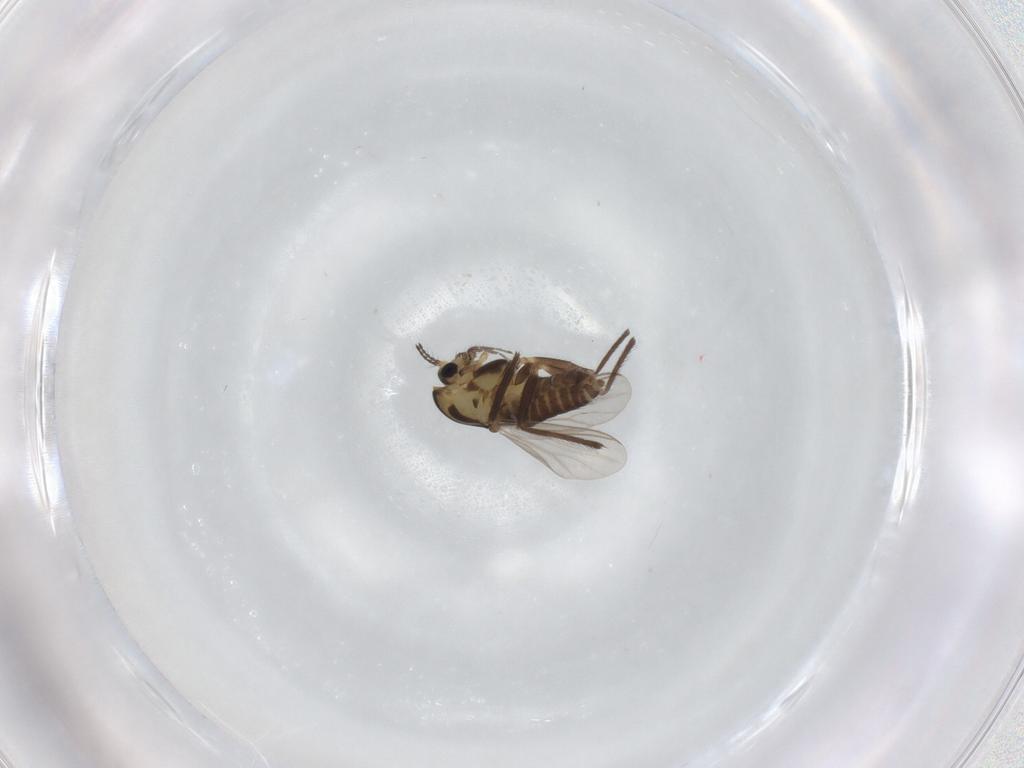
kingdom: Animalia
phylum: Arthropoda
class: Insecta
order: Diptera
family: Chironomidae
